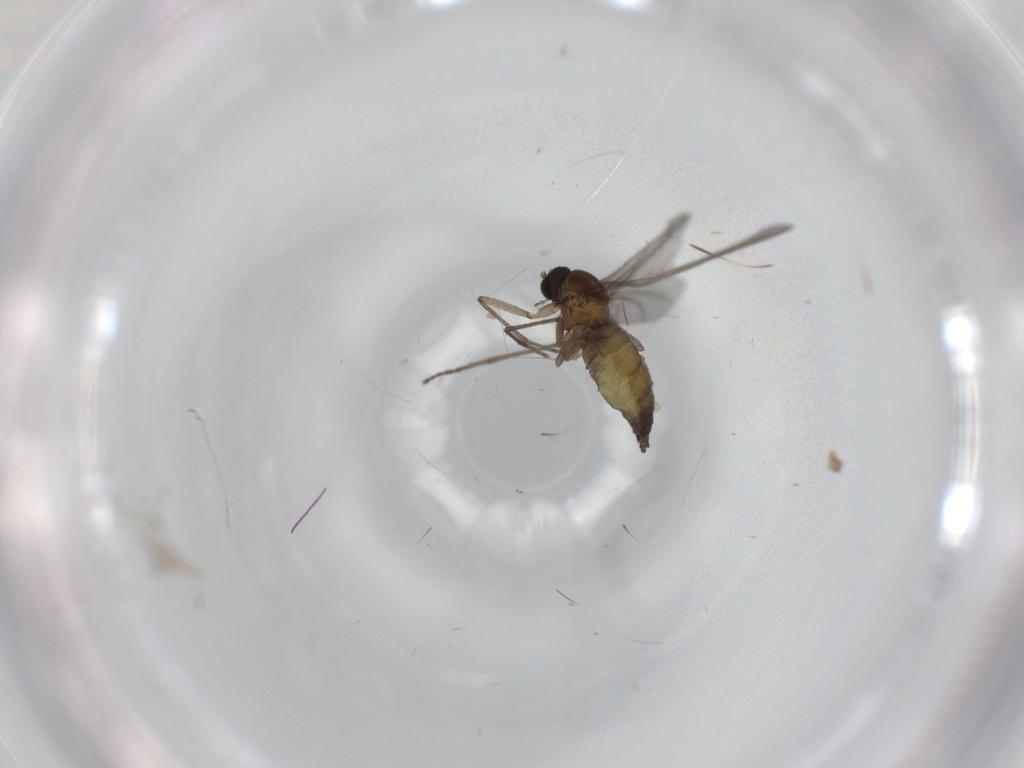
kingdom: Animalia
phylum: Arthropoda
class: Insecta
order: Diptera
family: Sciaridae
